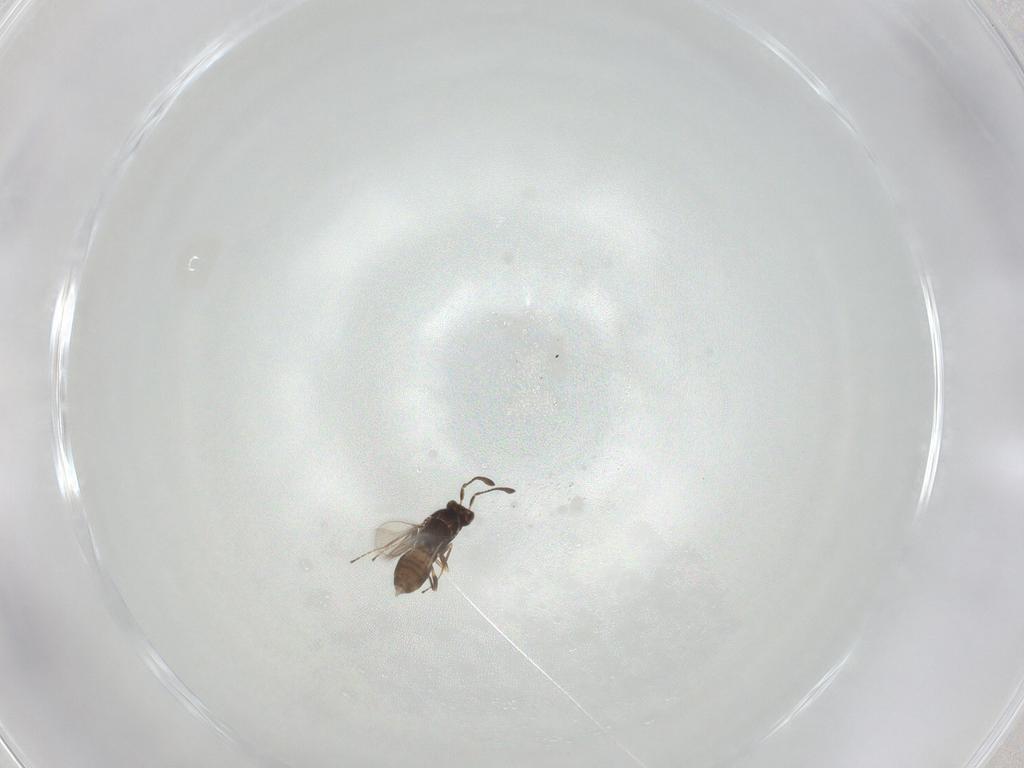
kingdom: Animalia
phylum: Arthropoda
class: Insecta
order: Hymenoptera
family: Mymaridae
